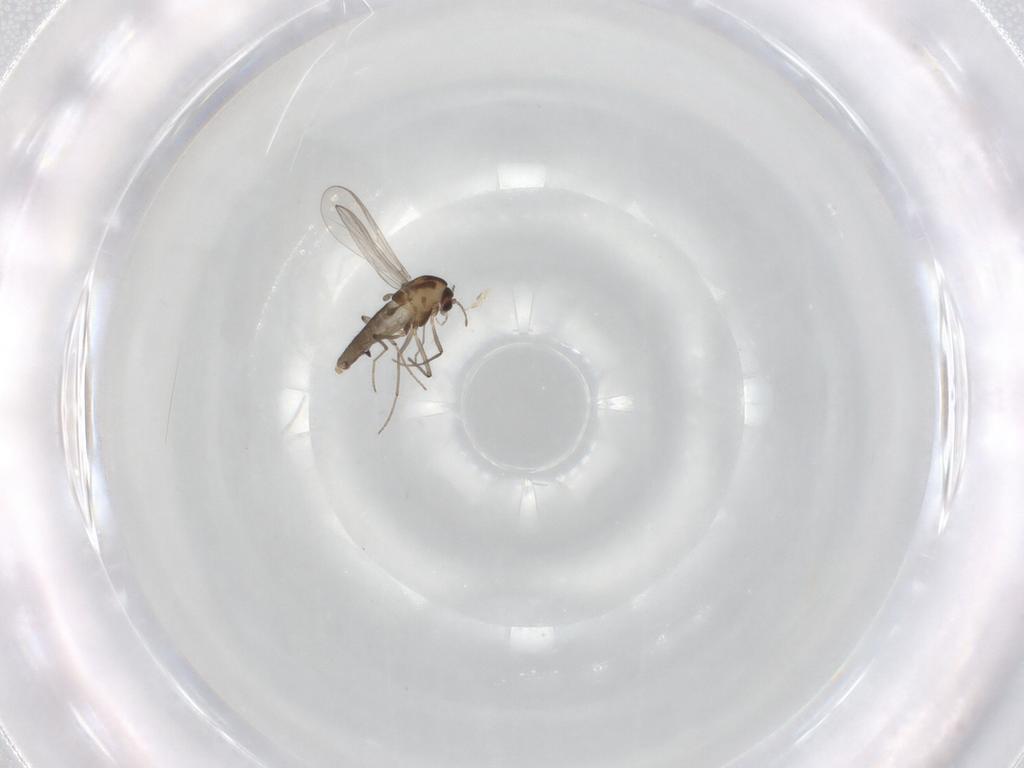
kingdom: Animalia
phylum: Arthropoda
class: Insecta
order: Diptera
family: Chironomidae
